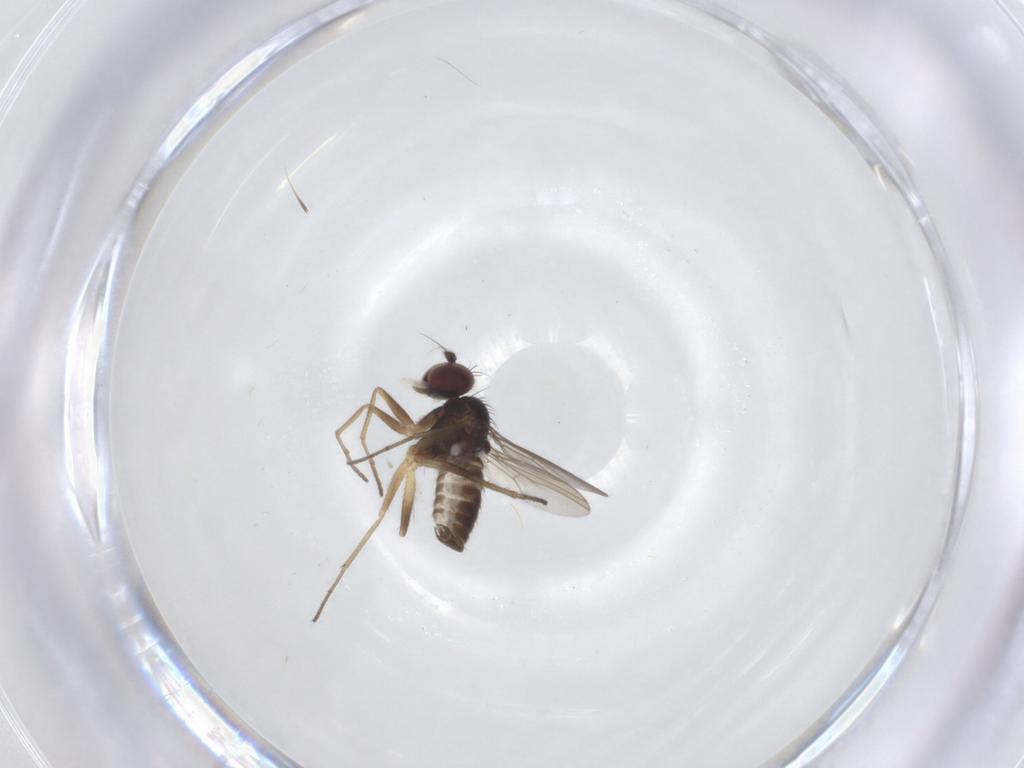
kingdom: Animalia
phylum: Arthropoda
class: Insecta
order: Diptera
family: Dolichopodidae
